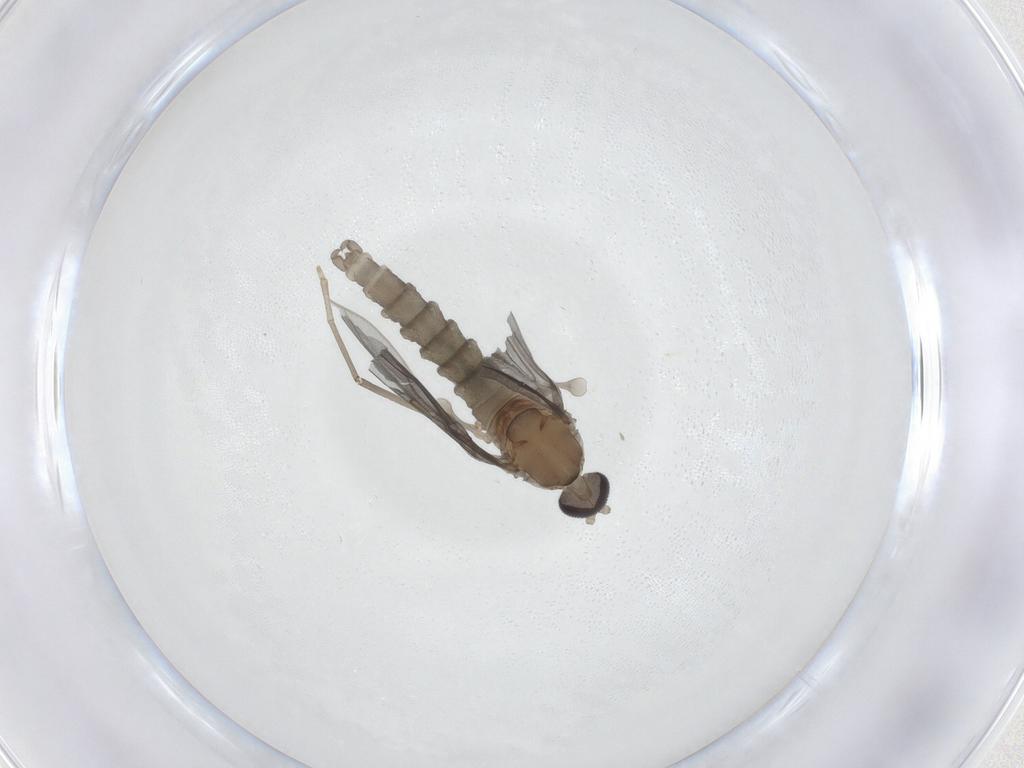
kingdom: Animalia
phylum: Arthropoda
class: Insecta
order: Diptera
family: Cecidomyiidae
